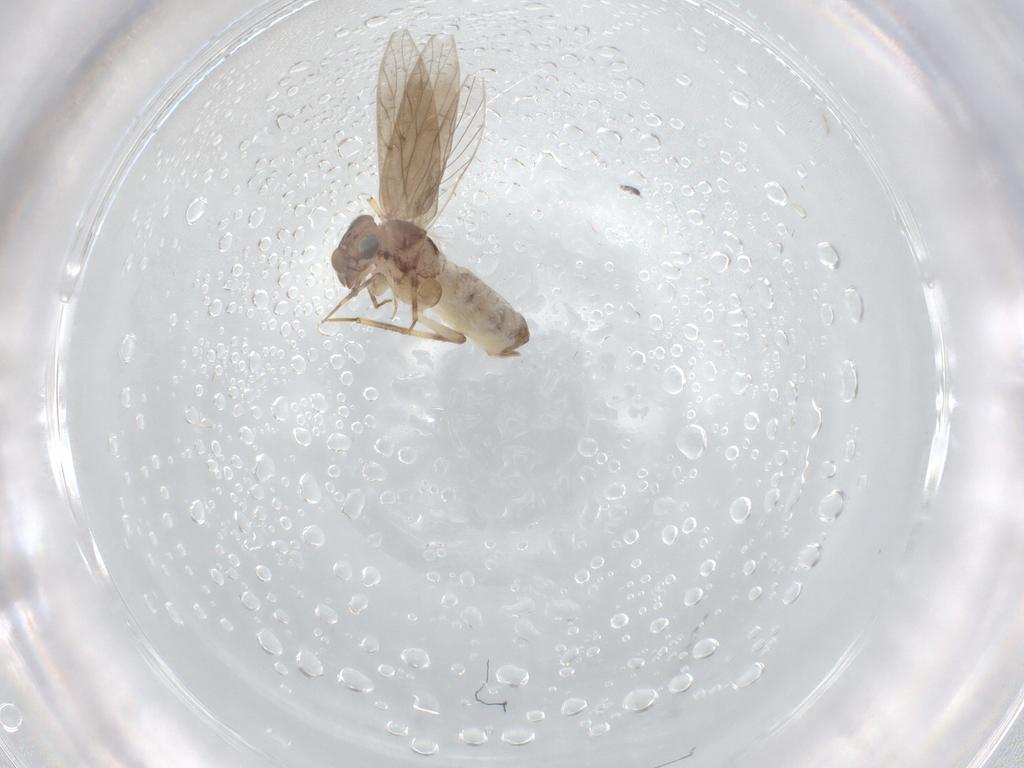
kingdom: Animalia
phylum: Arthropoda
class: Insecta
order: Psocodea
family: Lepidopsocidae
